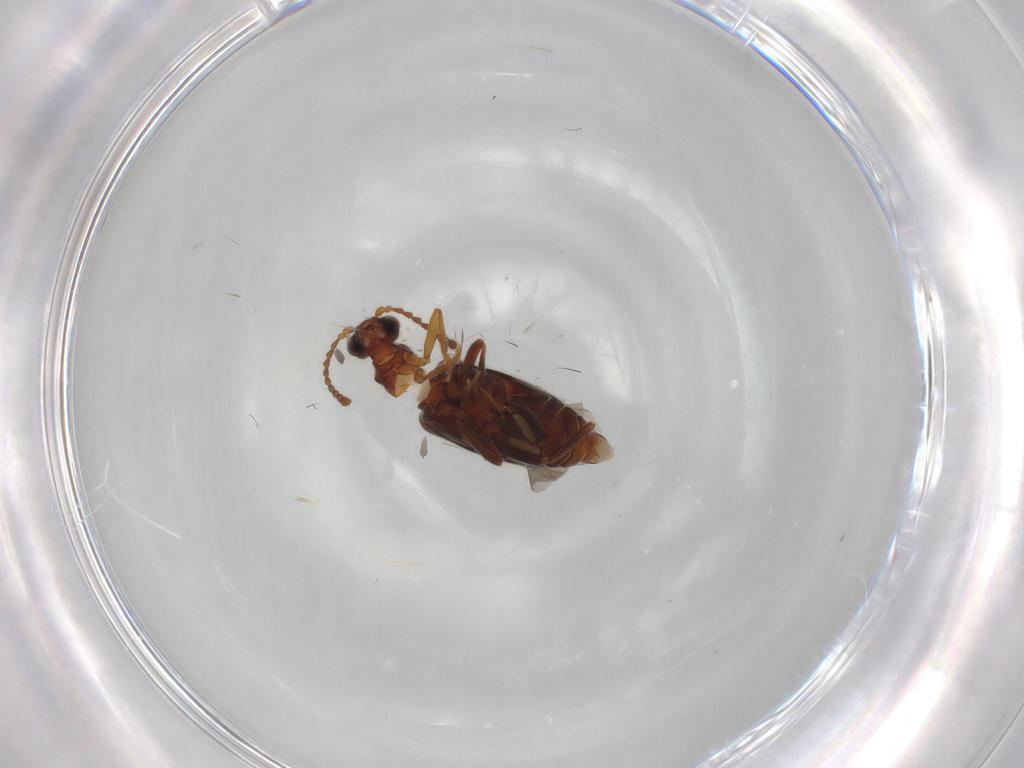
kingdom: Animalia
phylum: Arthropoda
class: Insecta
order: Coleoptera
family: Aderidae
